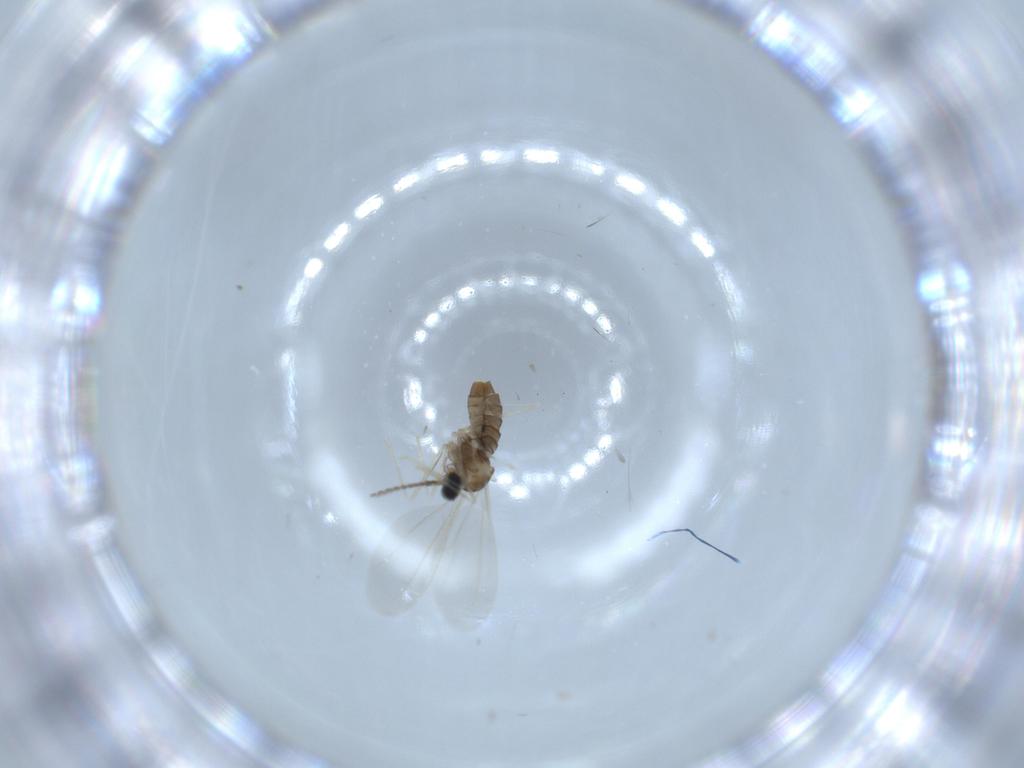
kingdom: Animalia
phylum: Arthropoda
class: Insecta
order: Diptera
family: Cecidomyiidae
